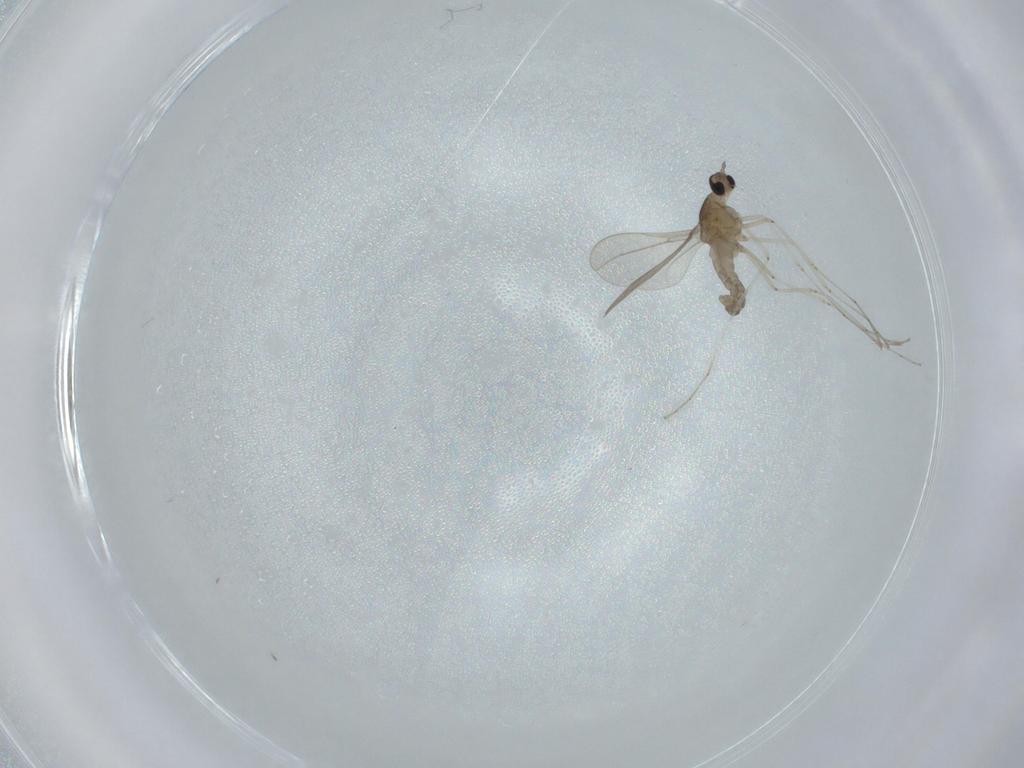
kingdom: Animalia
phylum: Arthropoda
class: Insecta
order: Diptera
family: Cecidomyiidae
